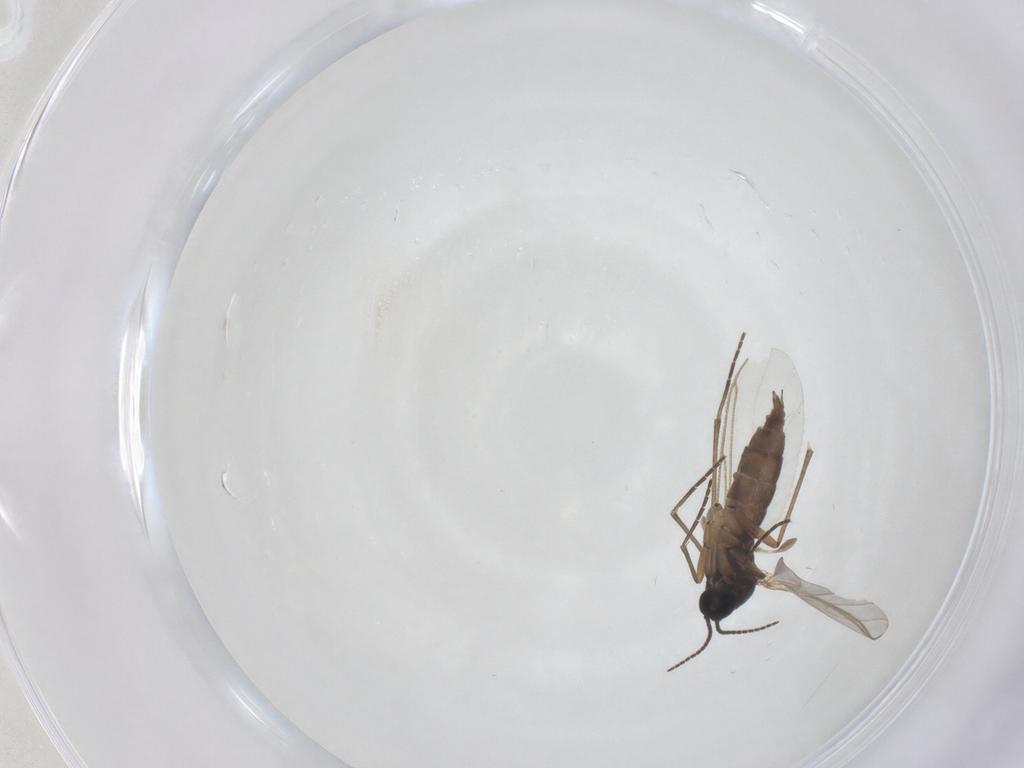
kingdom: Animalia
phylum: Arthropoda
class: Insecta
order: Diptera
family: Sciaridae
